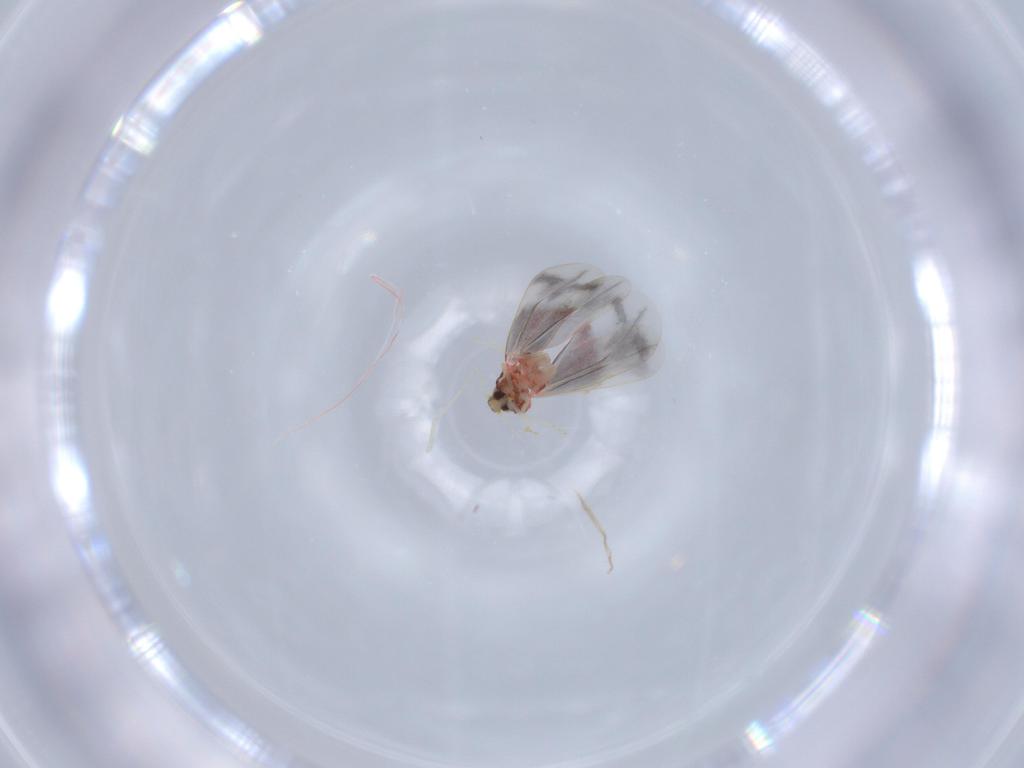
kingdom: Animalia
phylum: Arthropoda
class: Insecta
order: Hemiptera
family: Aleyrodidae
